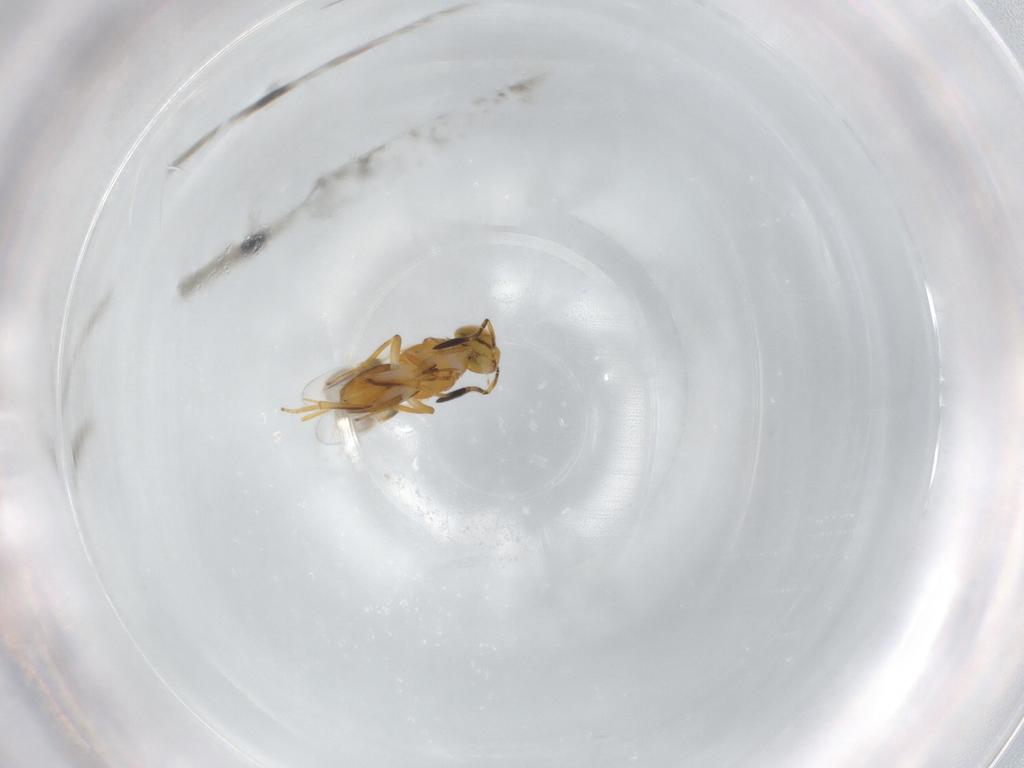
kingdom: Animalia
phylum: Arthropoda
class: Insecta
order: Hymenoptera
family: Encyrtidae
